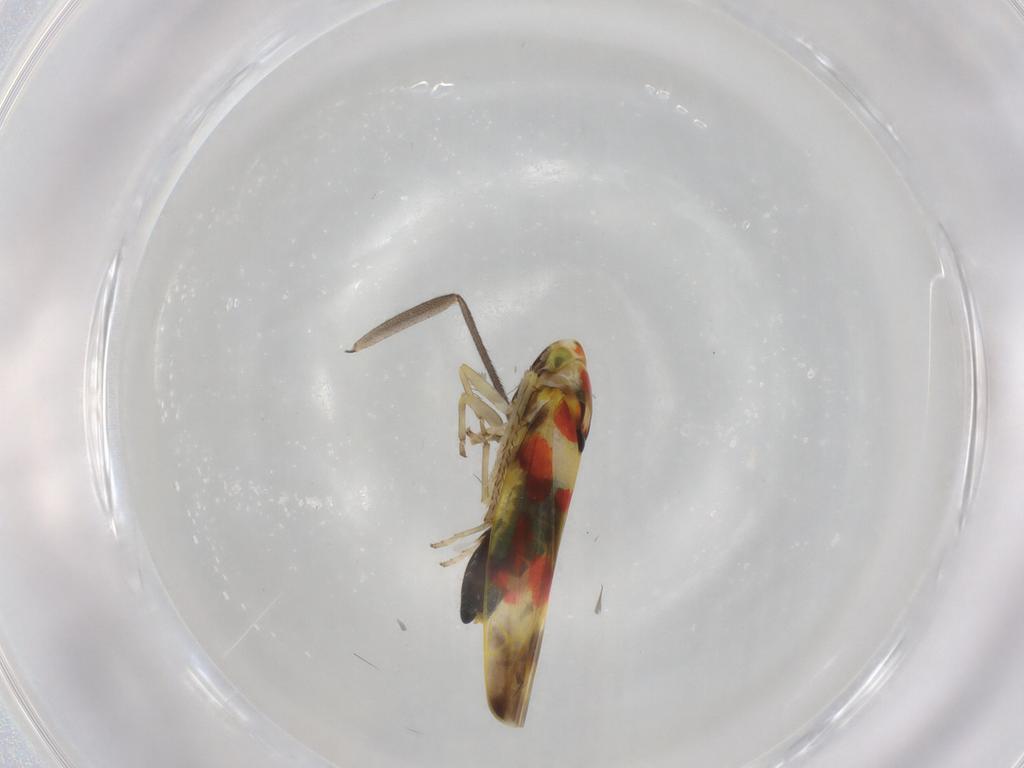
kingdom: Animalia
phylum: Arthropoda
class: Insecta
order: Hemiptera
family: Cicadellidae
